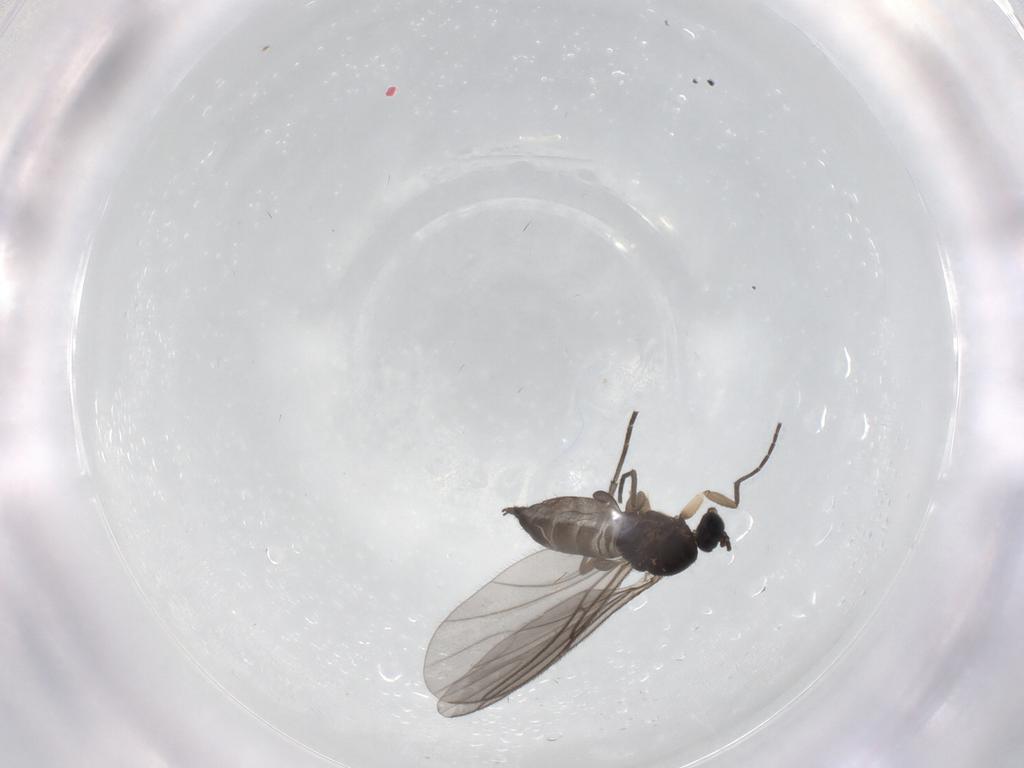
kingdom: Animalia
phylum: Arthropoda
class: Insecta
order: Diptera
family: Sciaridae
